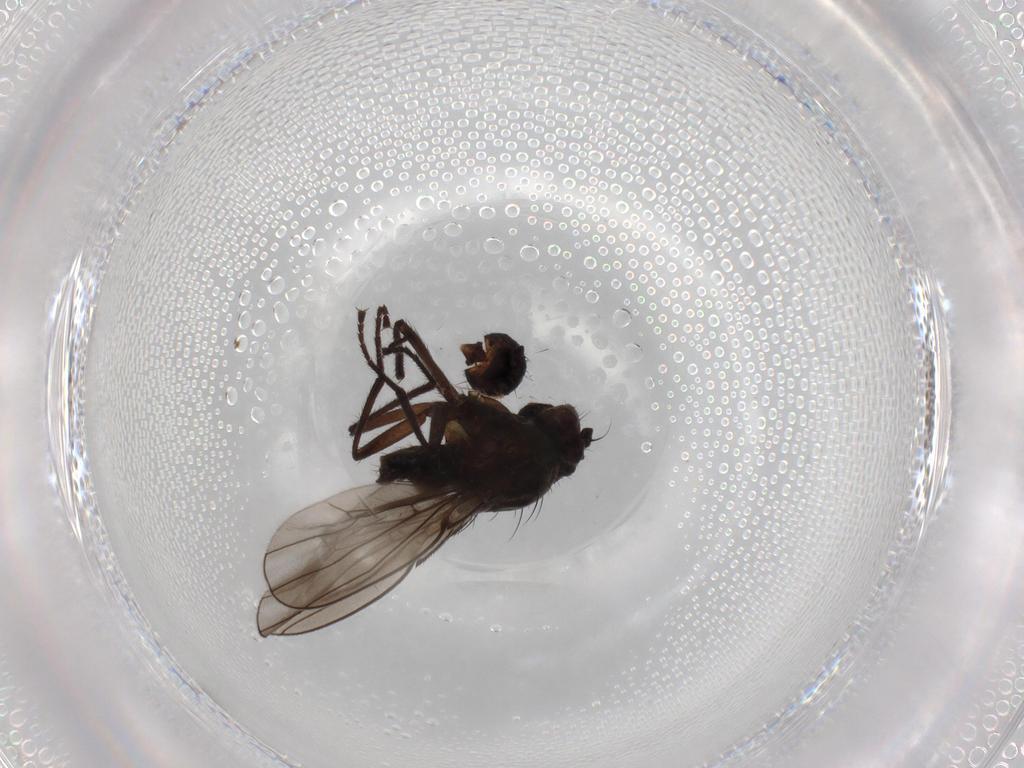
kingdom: Animalia
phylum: Arthropoda
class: Insecta
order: Diptera
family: Ephydridae
